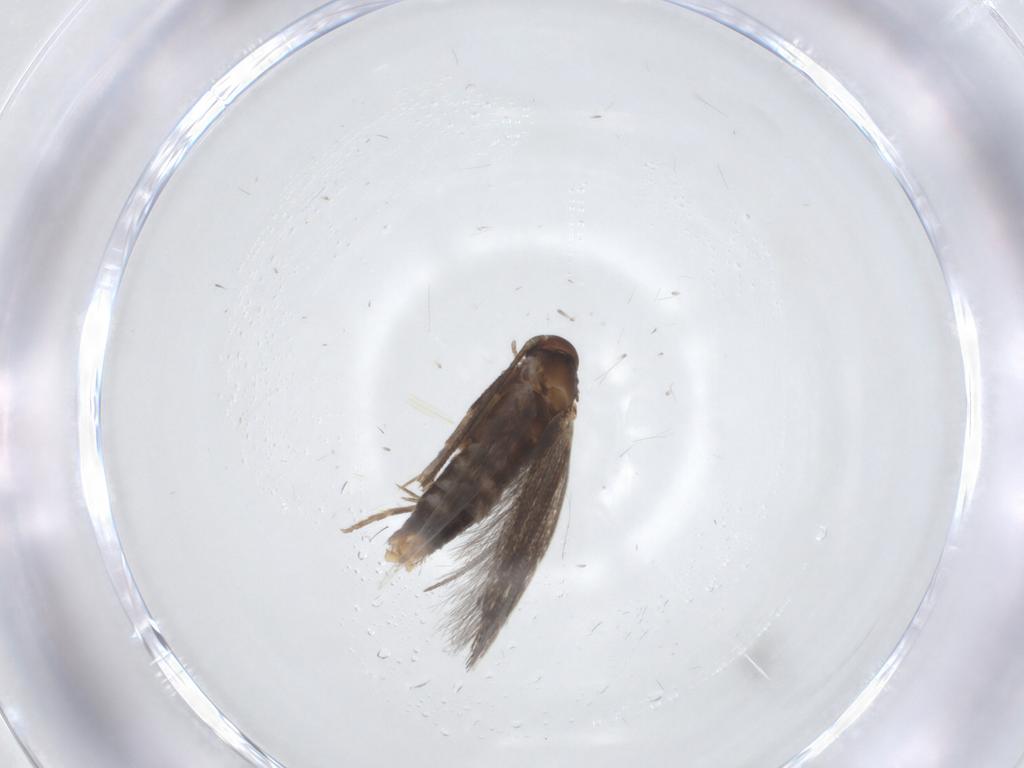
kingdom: Animalia
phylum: Arthropoda
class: Insecta
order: Lepidoptera
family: Elachistidae
